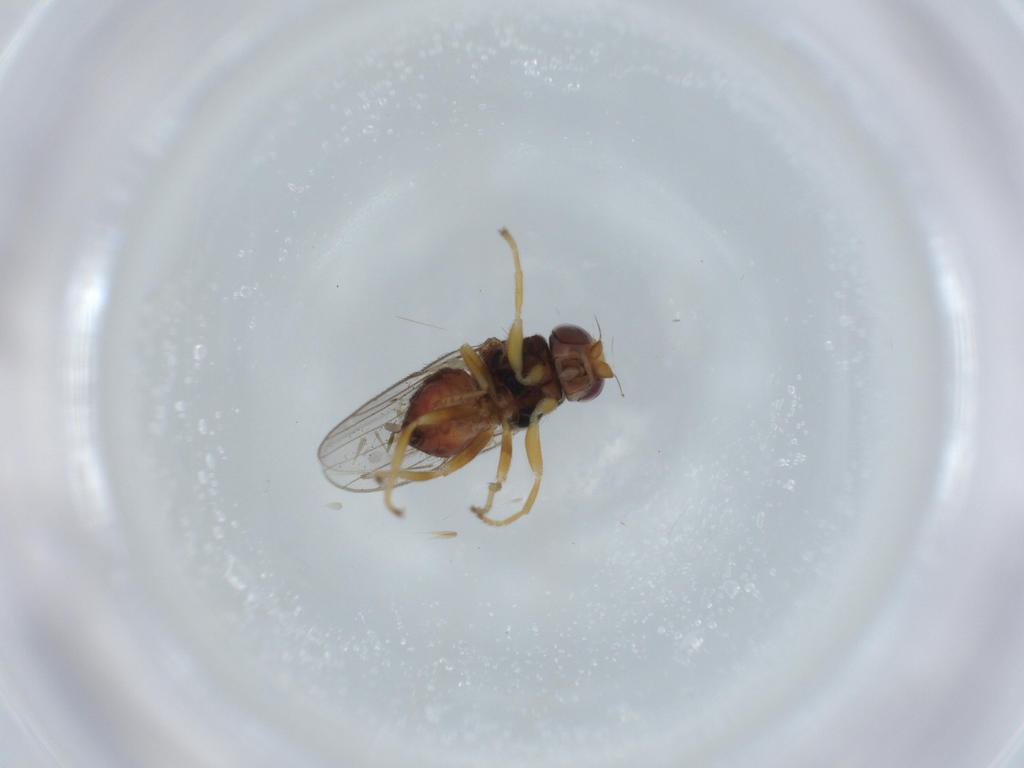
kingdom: Animalia
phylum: Arthropoda
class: Insecta
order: Diptera
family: Chloropidae
